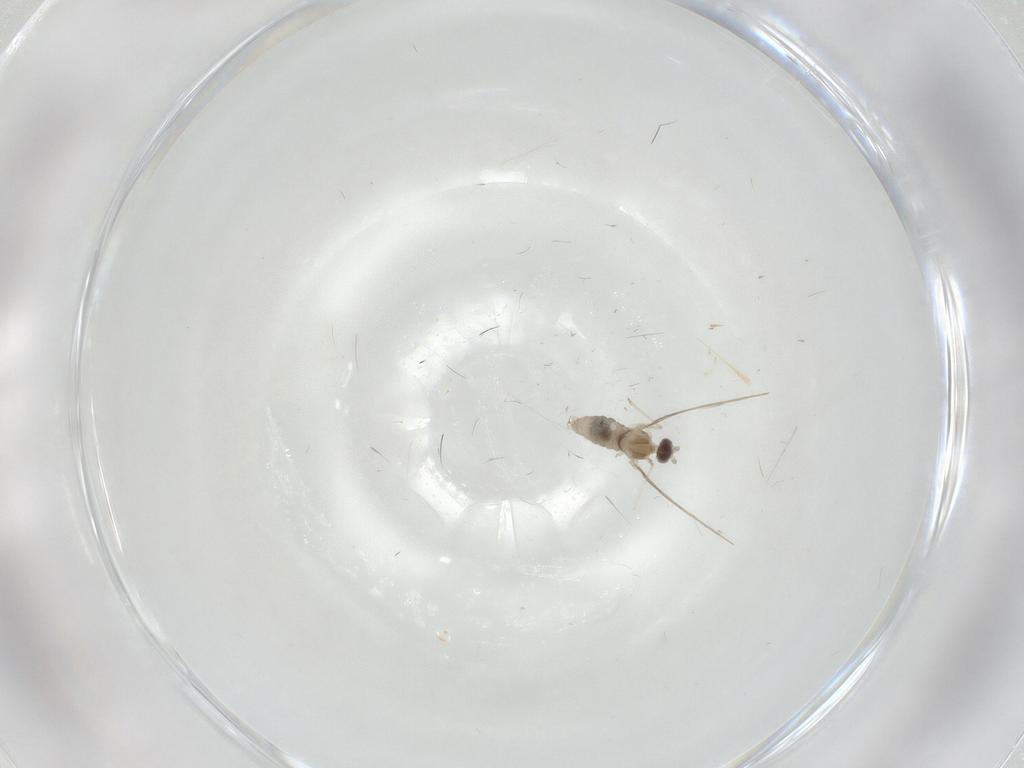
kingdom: Animalia
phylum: Arthropoda
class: Insecta
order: Diptera
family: Cecidomyiidae
